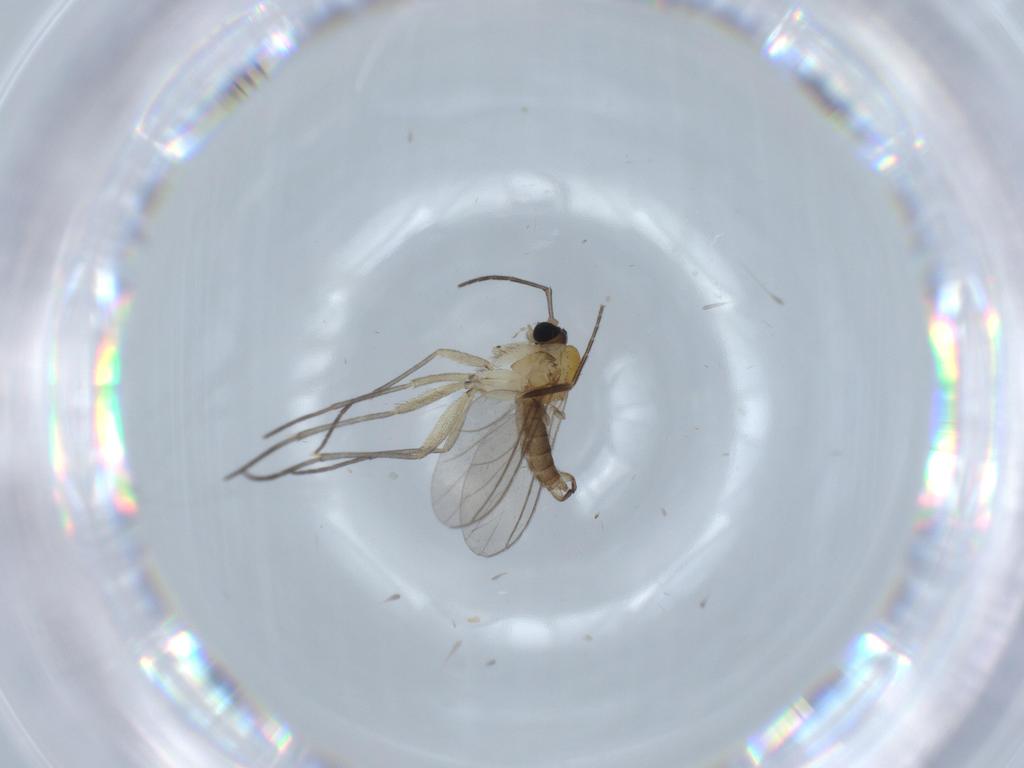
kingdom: Animalia
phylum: Arthropoda
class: Insecta
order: Diptera
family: Sciaridae
